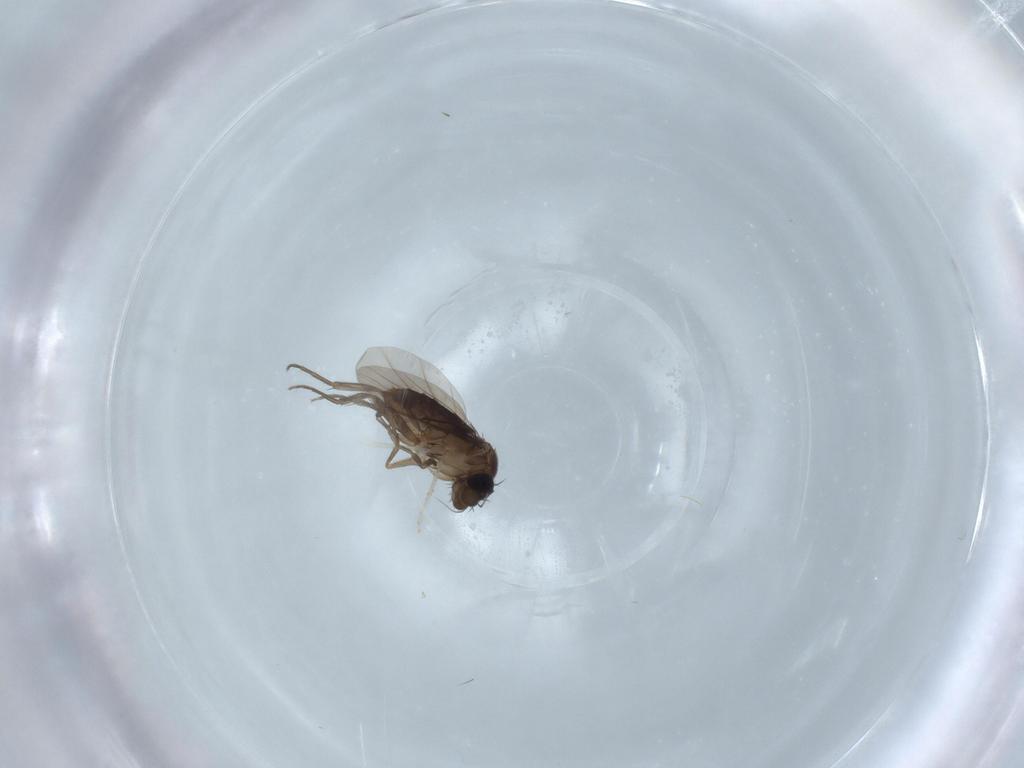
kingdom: Animalia
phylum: Arthropoda
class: Insecta
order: Diptera
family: Phoridae
